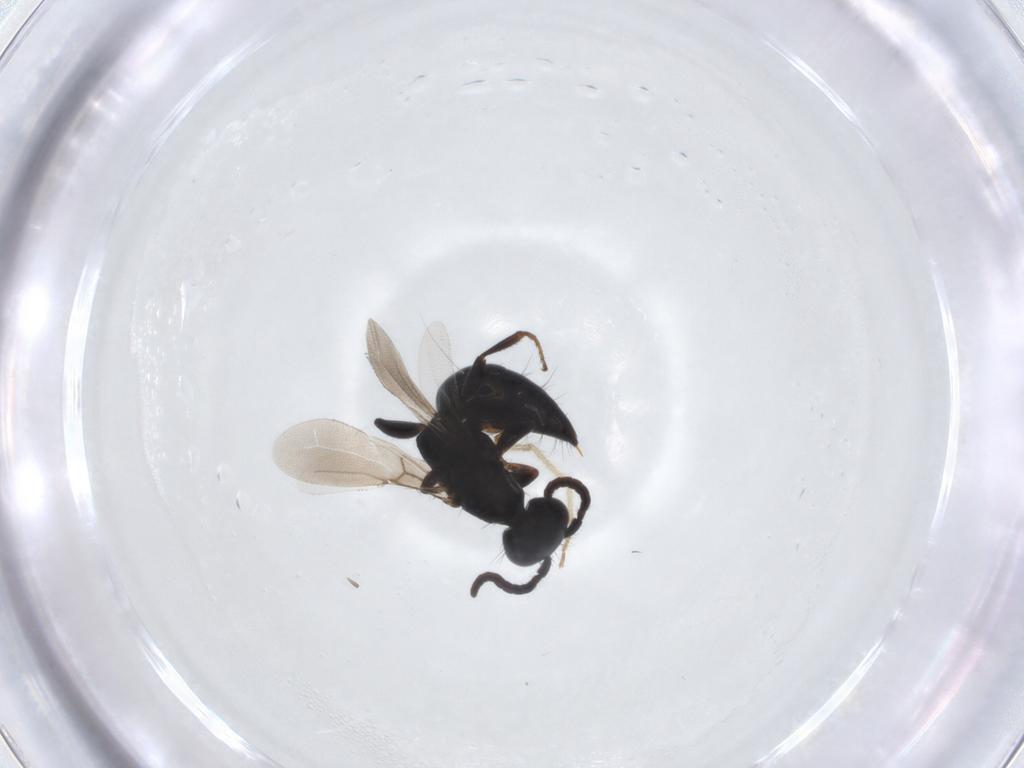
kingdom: Animalia
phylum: Arthropoda
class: Insecta
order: Hymenoptera
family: Bethylidae
